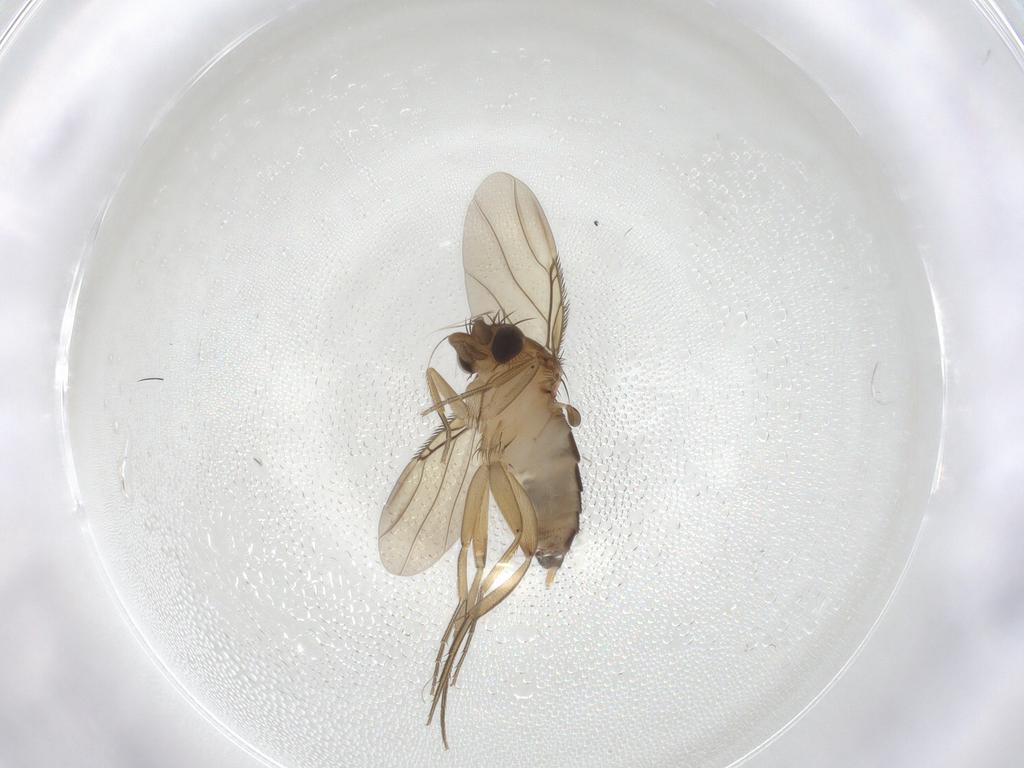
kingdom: Animalia
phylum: Arthropoda
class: Insecta
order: Diptera
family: Phoridae
